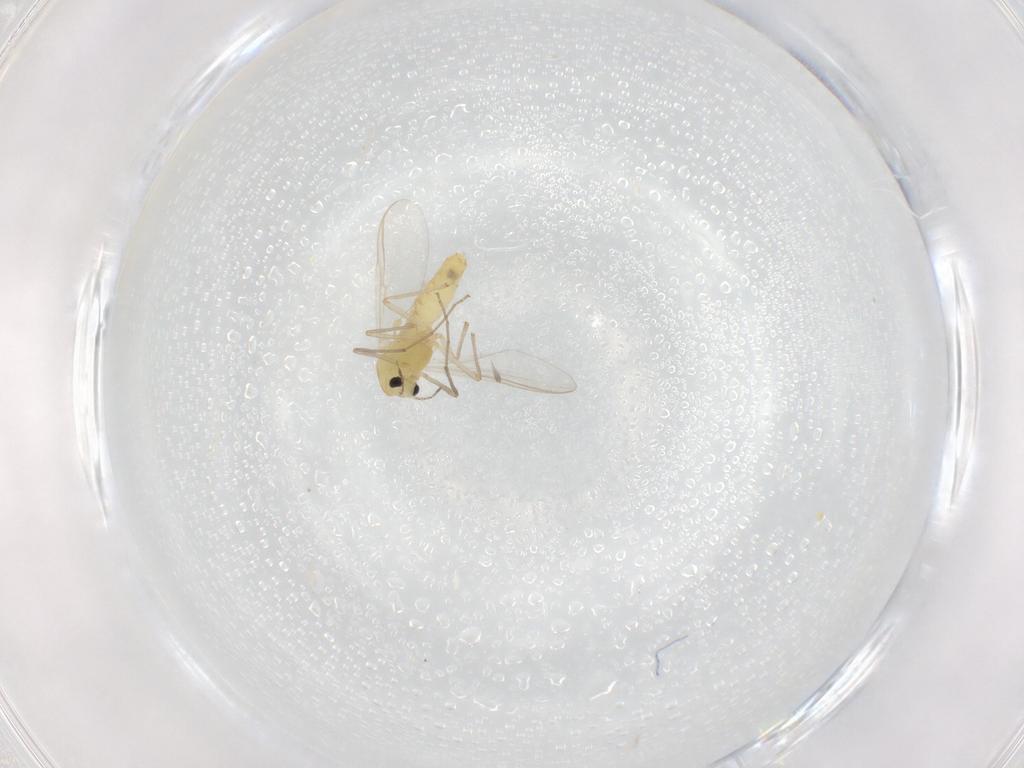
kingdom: Animalia
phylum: Arthropoda
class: Insecta
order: Diptera
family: Chironomidae
